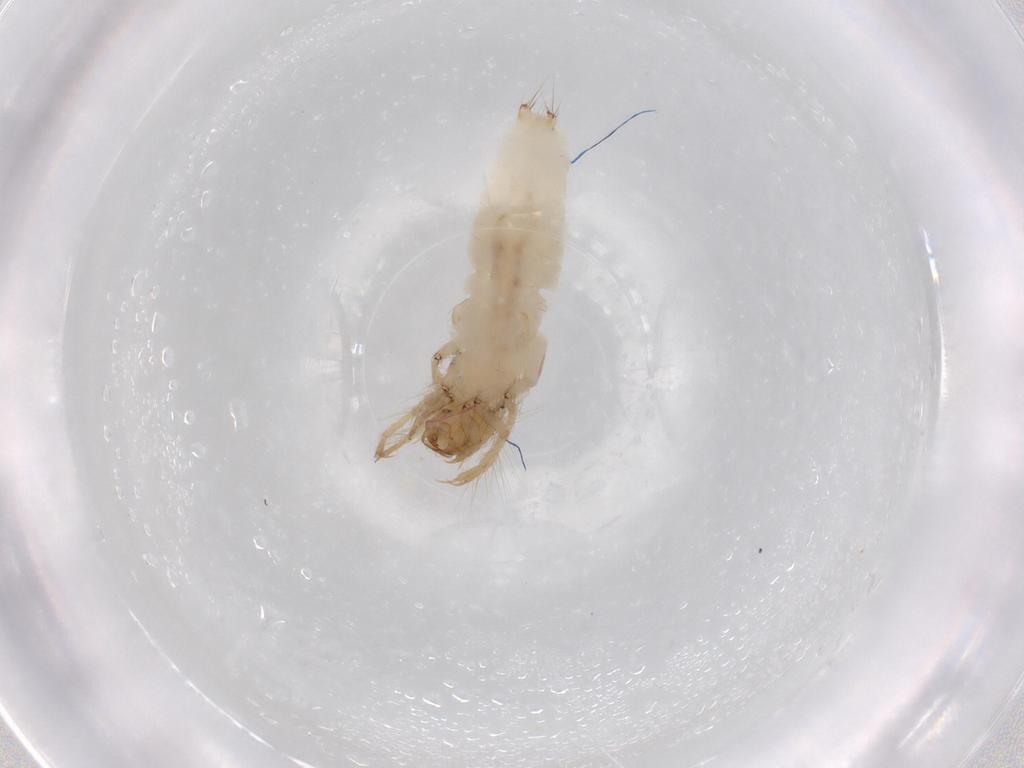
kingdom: Animalia
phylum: Arthropoda
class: Insecta
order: Trichoptera
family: Leptoceridae
